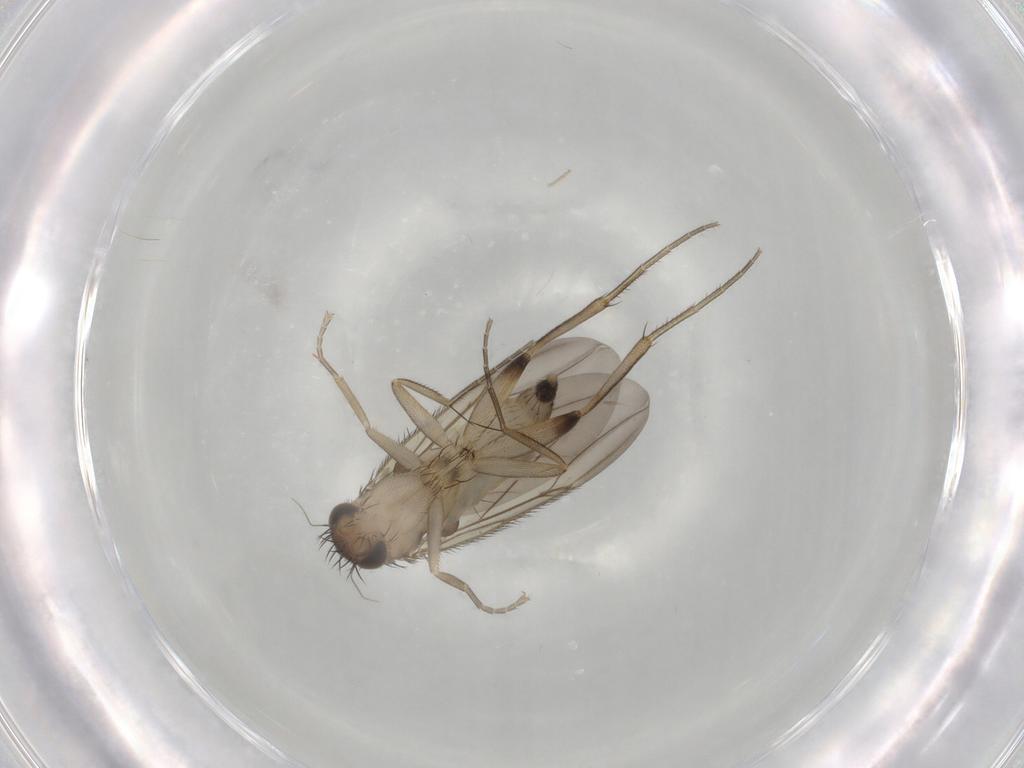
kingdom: Animalia
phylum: Arthropoda
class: Insecta
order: Diptera
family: Phoridae
